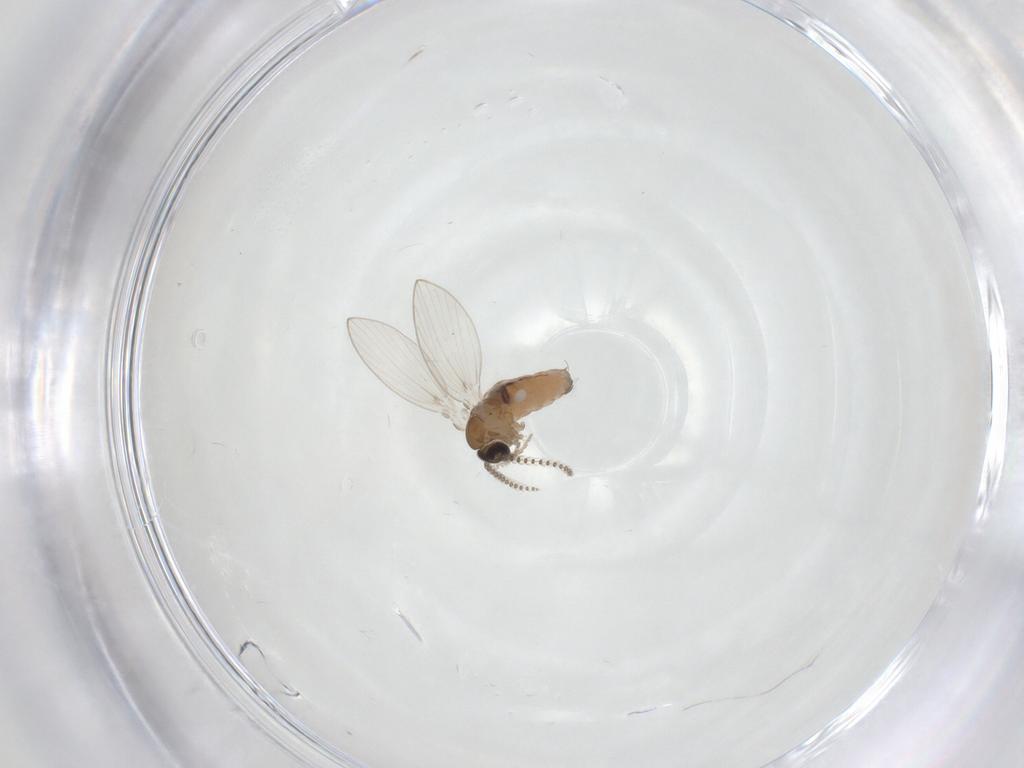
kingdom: Animalia
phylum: Arthropoda
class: Insecta
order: Diptera
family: Psychodidae
